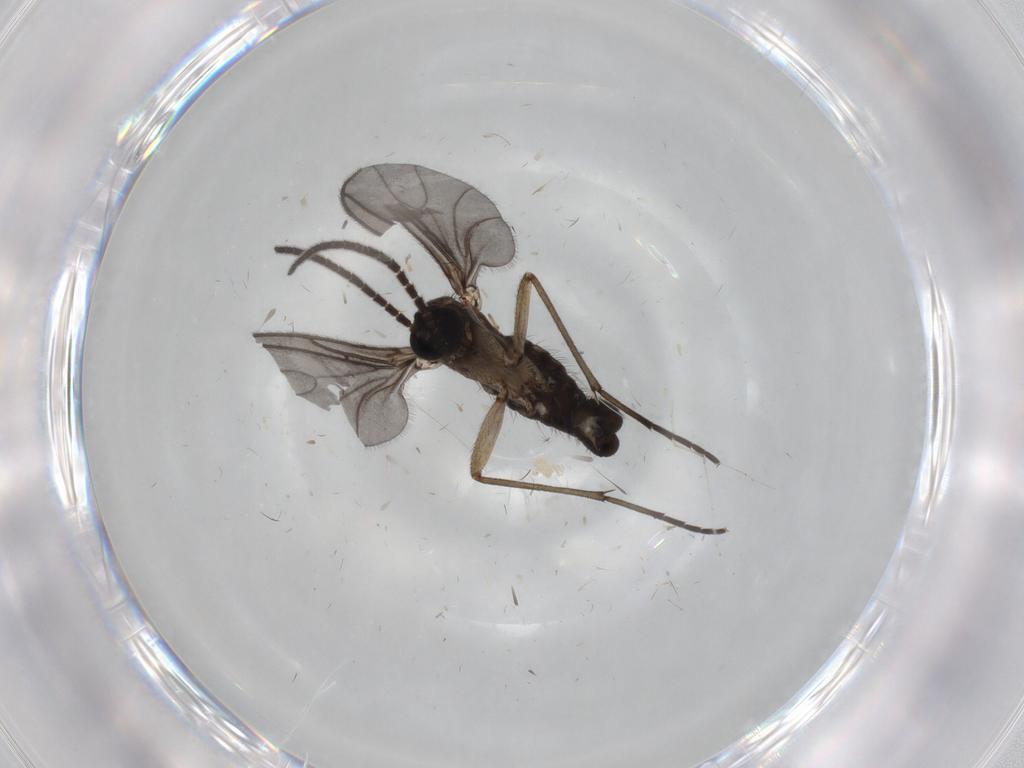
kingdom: Animalia
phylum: Arthropoda
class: Insecta
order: Diptera
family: Sciaridae
